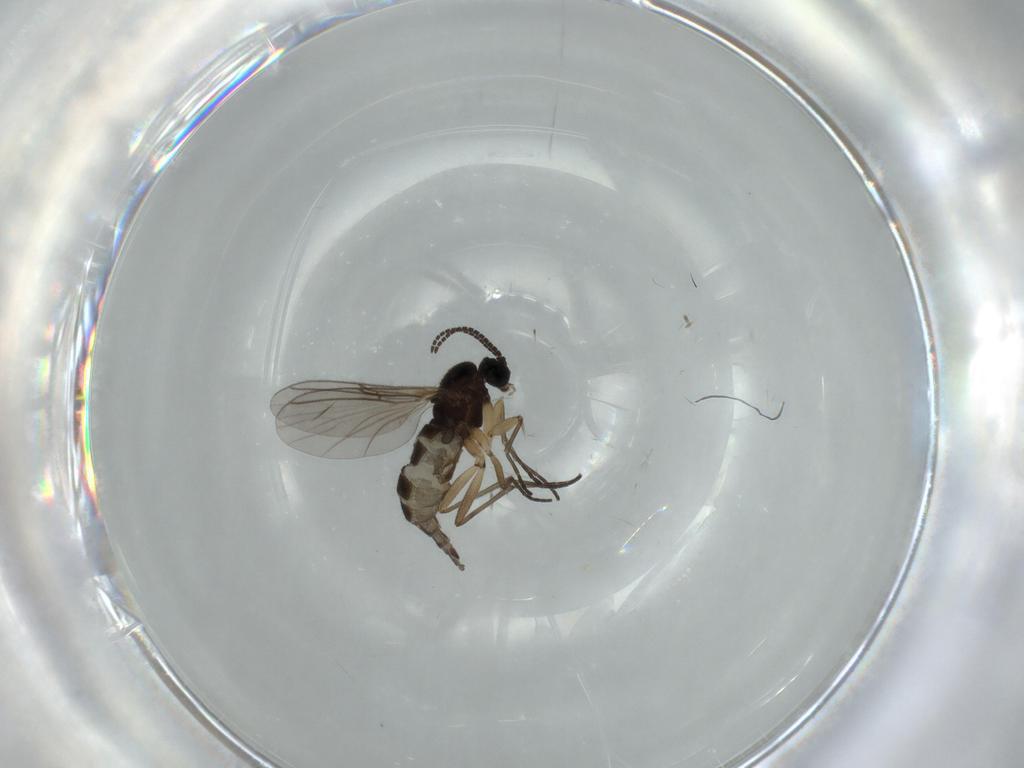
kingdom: Animalia
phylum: Arthropoda
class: Insecta
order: Diptera
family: Sciaridae
